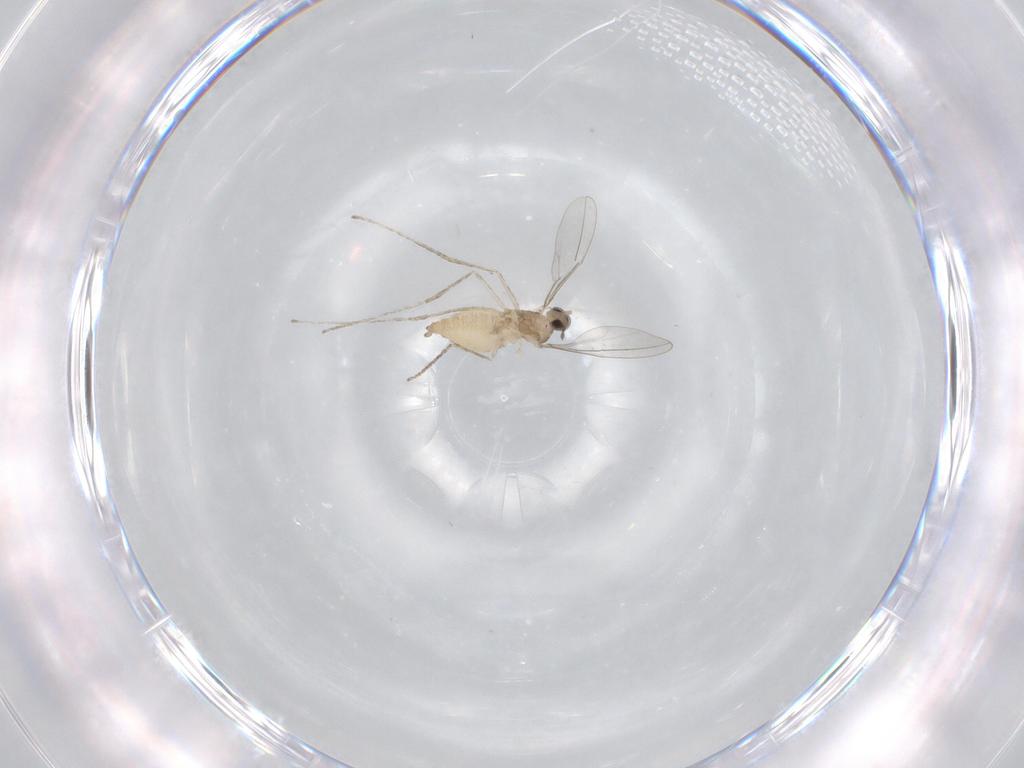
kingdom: Animalia
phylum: Arthropoda
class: Insecta
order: Diptera
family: Cecidomyiidae
